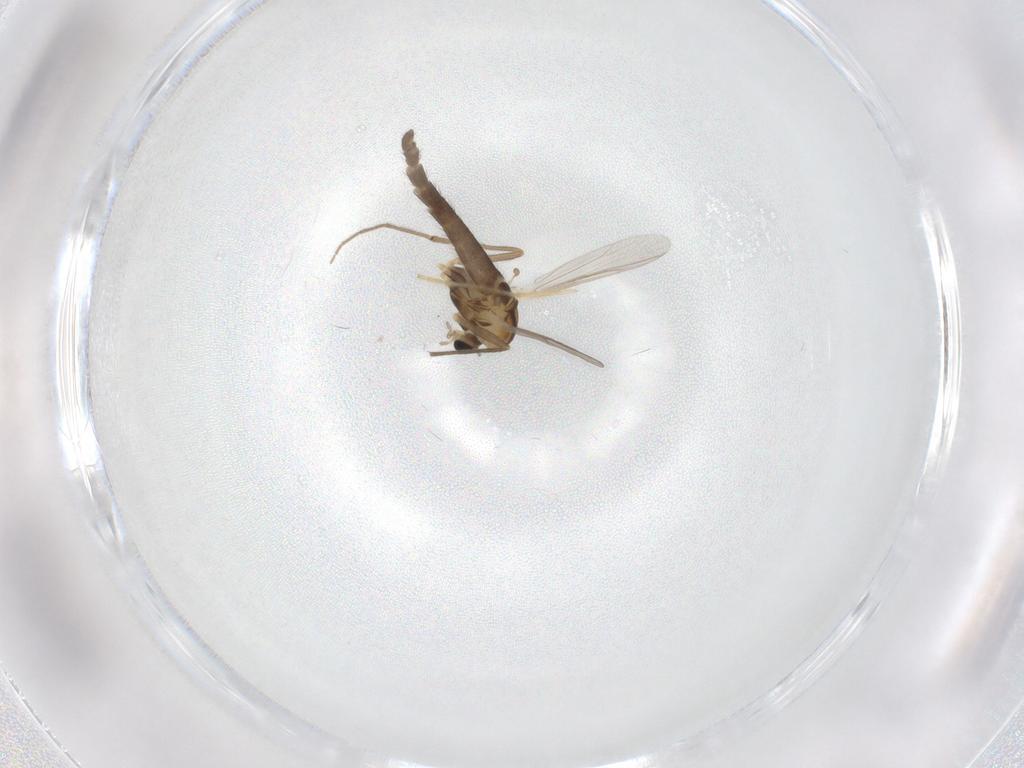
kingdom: Animalia
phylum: Arthropoda
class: Insecta
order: Diptera
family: Chironomidae
